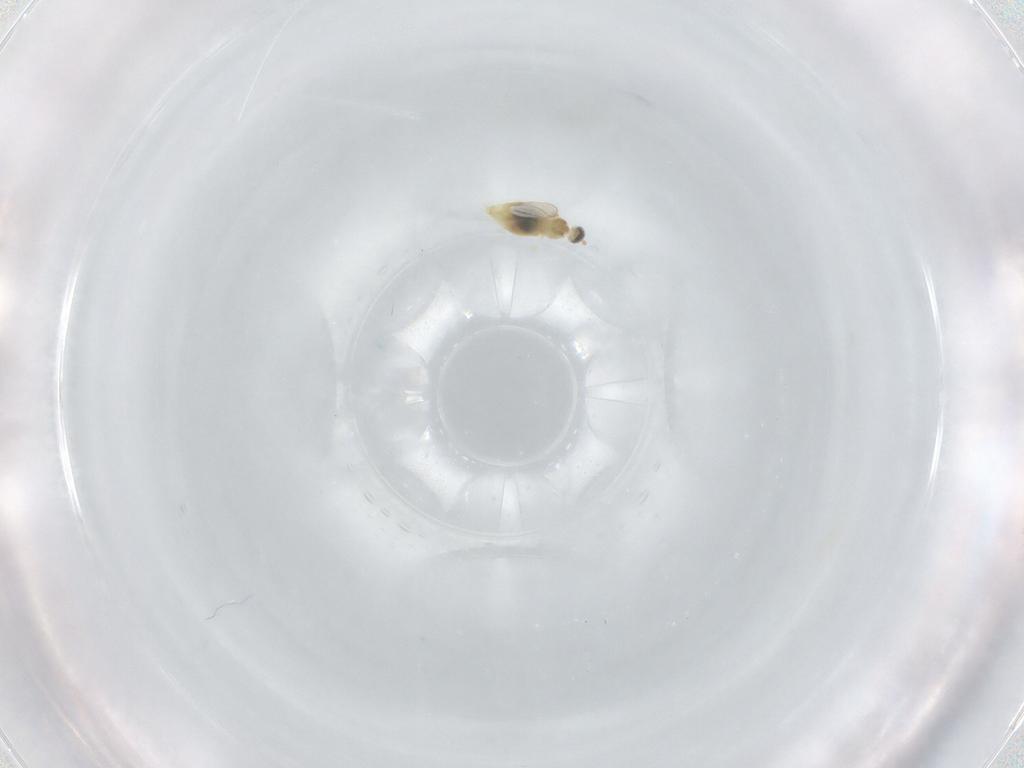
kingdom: Animalia
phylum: Arthropoda
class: Insecta
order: Diptera
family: Cecidomyiidae
